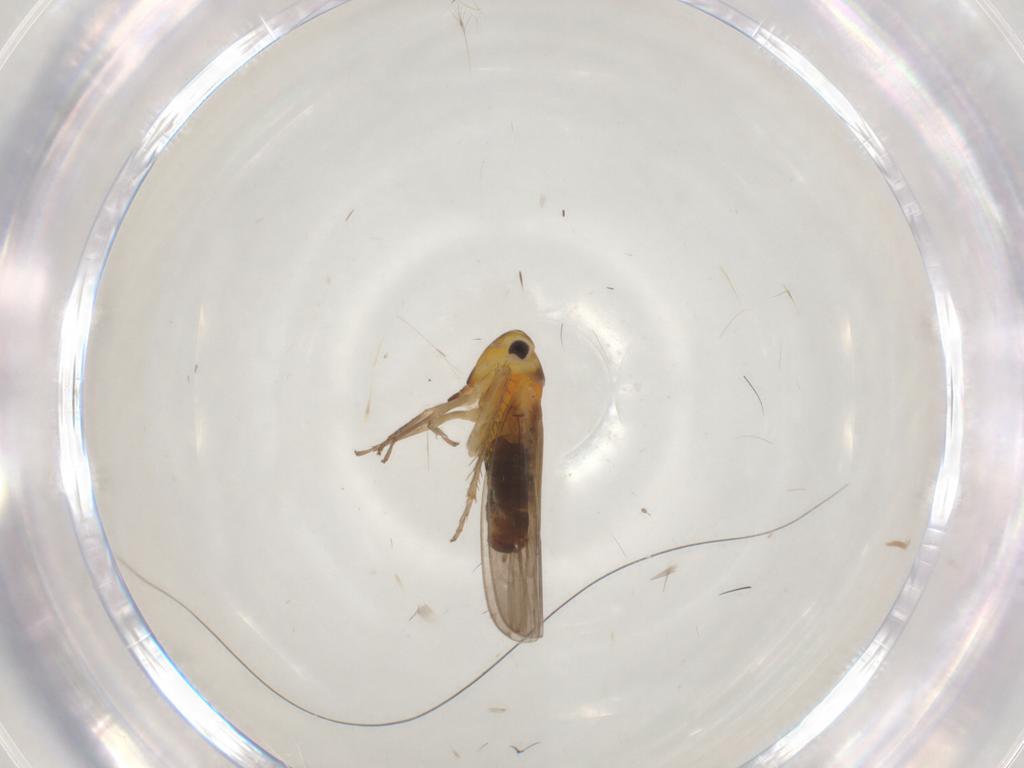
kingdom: Animalia
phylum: Arthropoda
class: Insecta
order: Hemiptera
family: Cicadellidae
